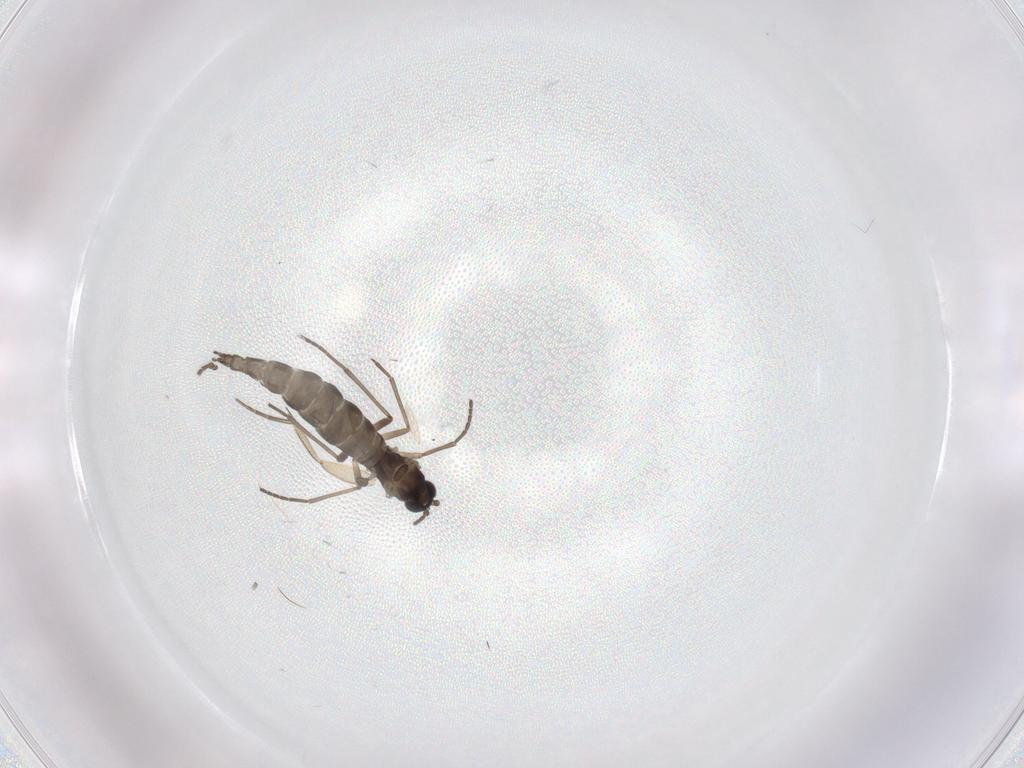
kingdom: Animalia
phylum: Arthropoda
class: Insecta
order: Diptera
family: Sciaridae
